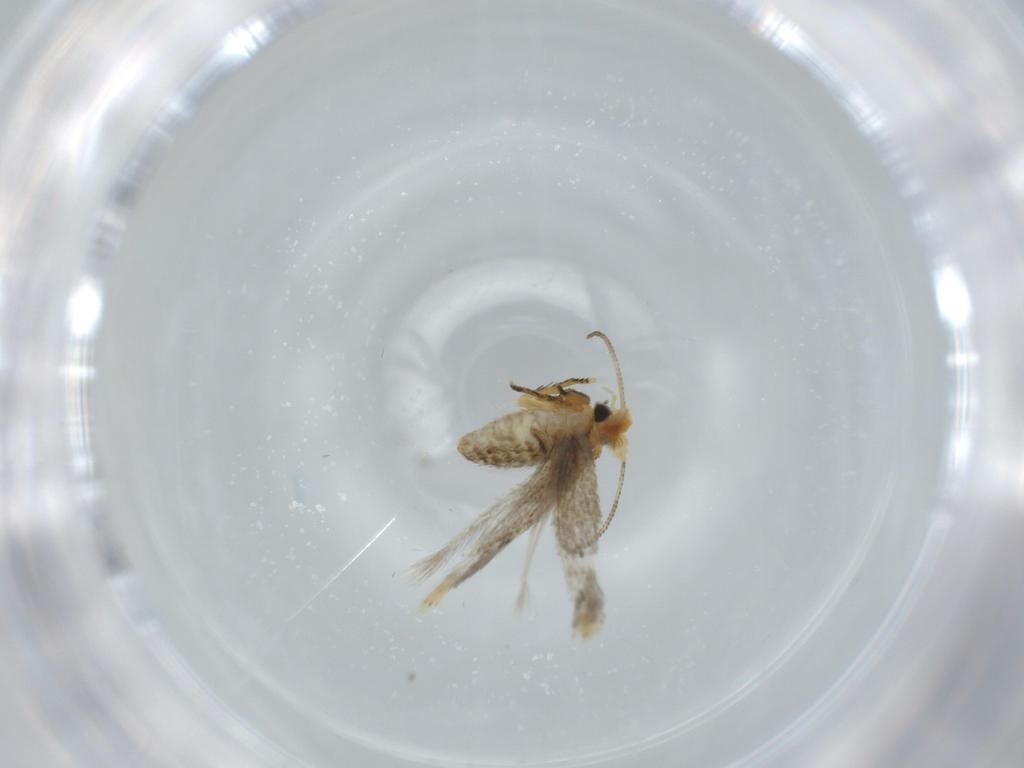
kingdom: Animalia
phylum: Arthropoda
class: Insecta
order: Lepidoptera
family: Nepticulidae
